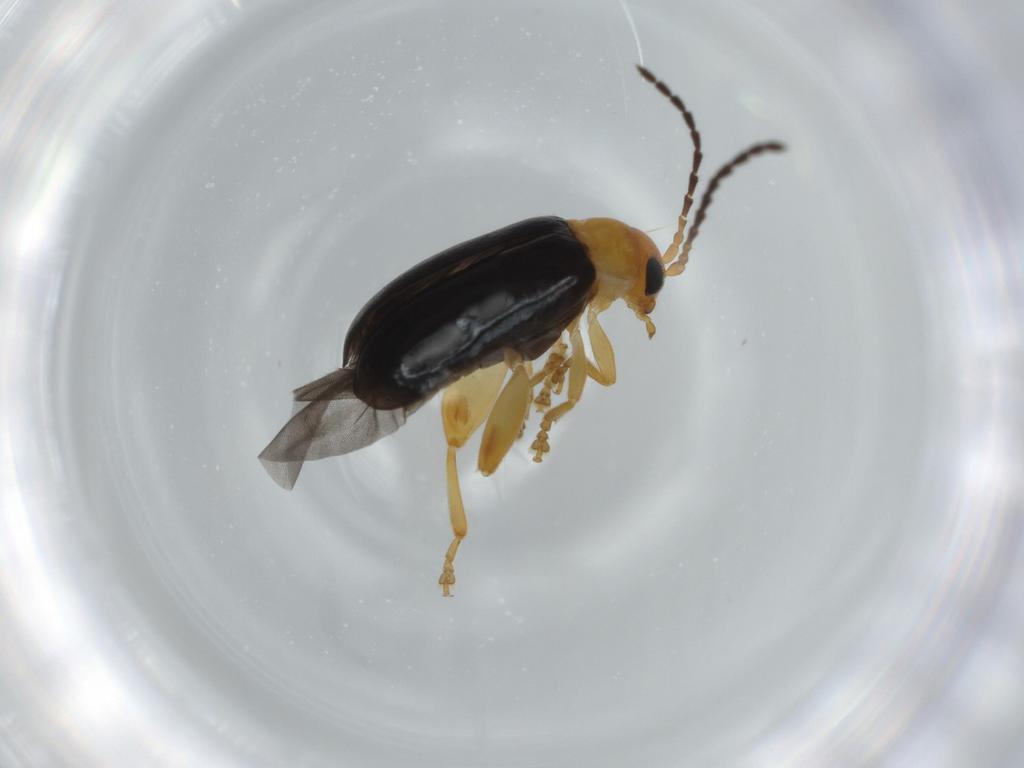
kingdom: Animalia
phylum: Arthropoda
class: Insecta
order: Coleoptera
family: Chrysomelidae
